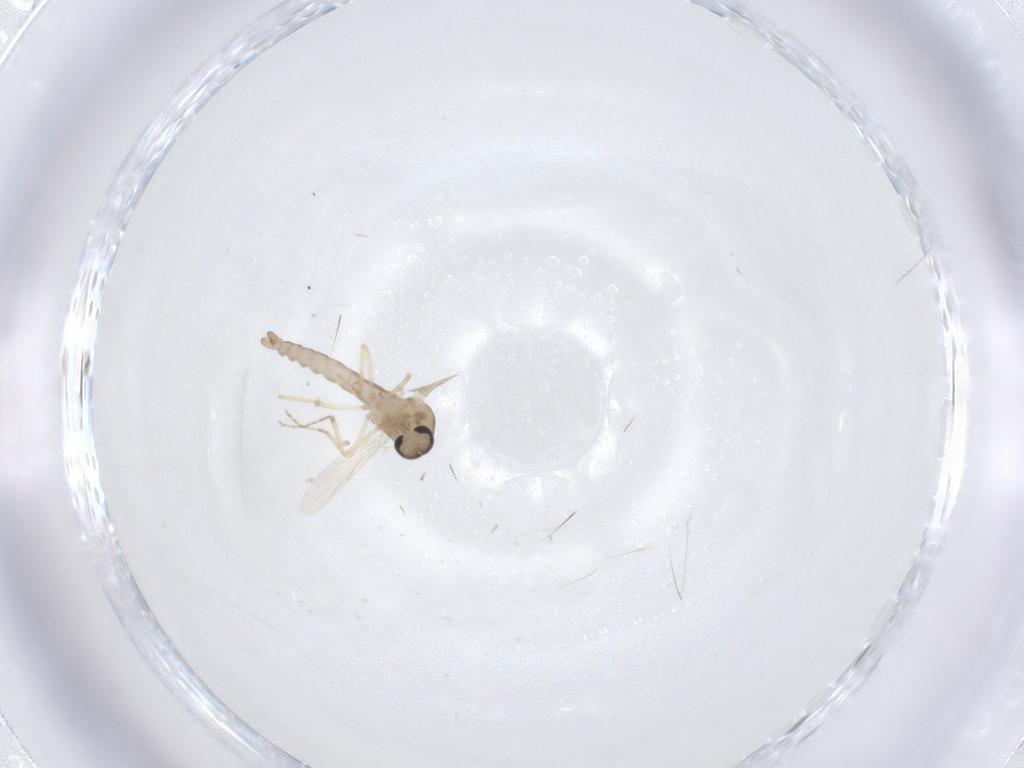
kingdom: Animalia
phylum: Arthropoda
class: Insecta
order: Diptera
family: Ceratopogonidae
